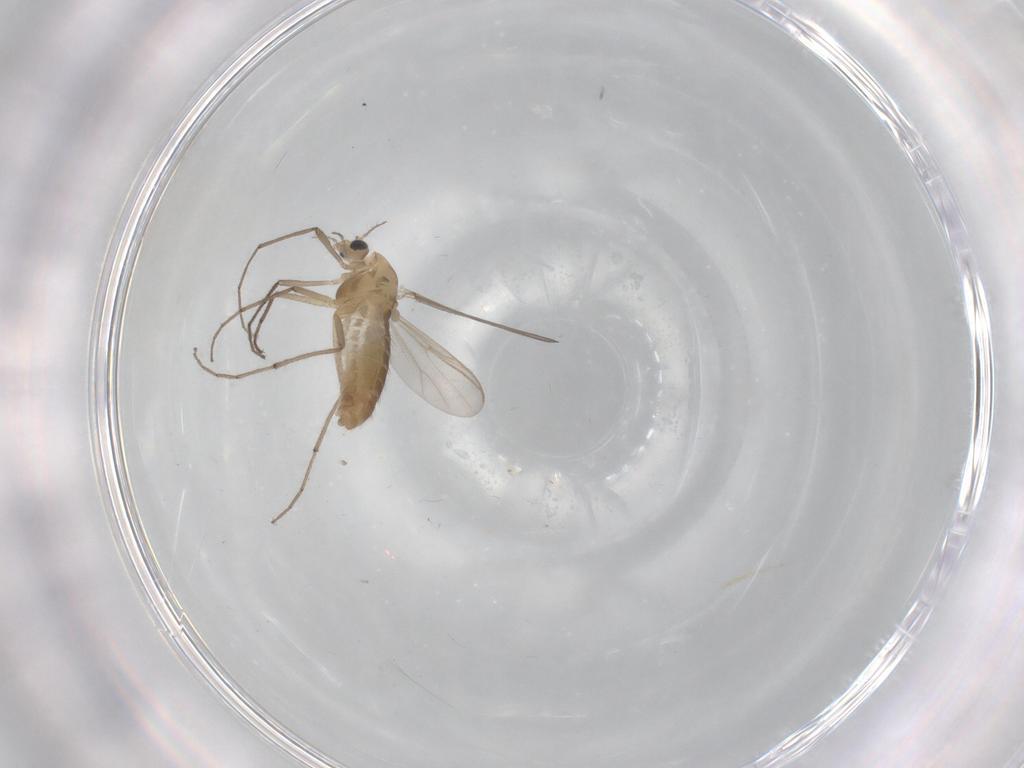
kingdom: Animalia
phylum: Arthropoda
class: Insecta
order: Diptera
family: Chironomidae
